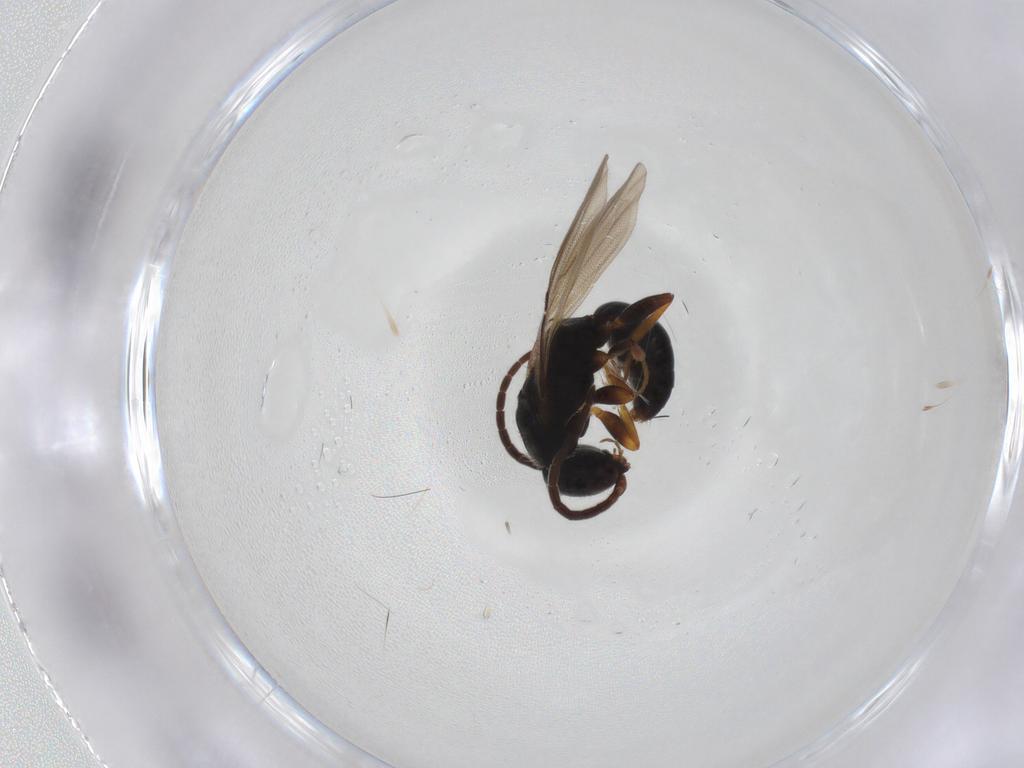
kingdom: Animalia
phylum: Arthropoda
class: Insecta
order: Hymenoptera
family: Bethylidae
